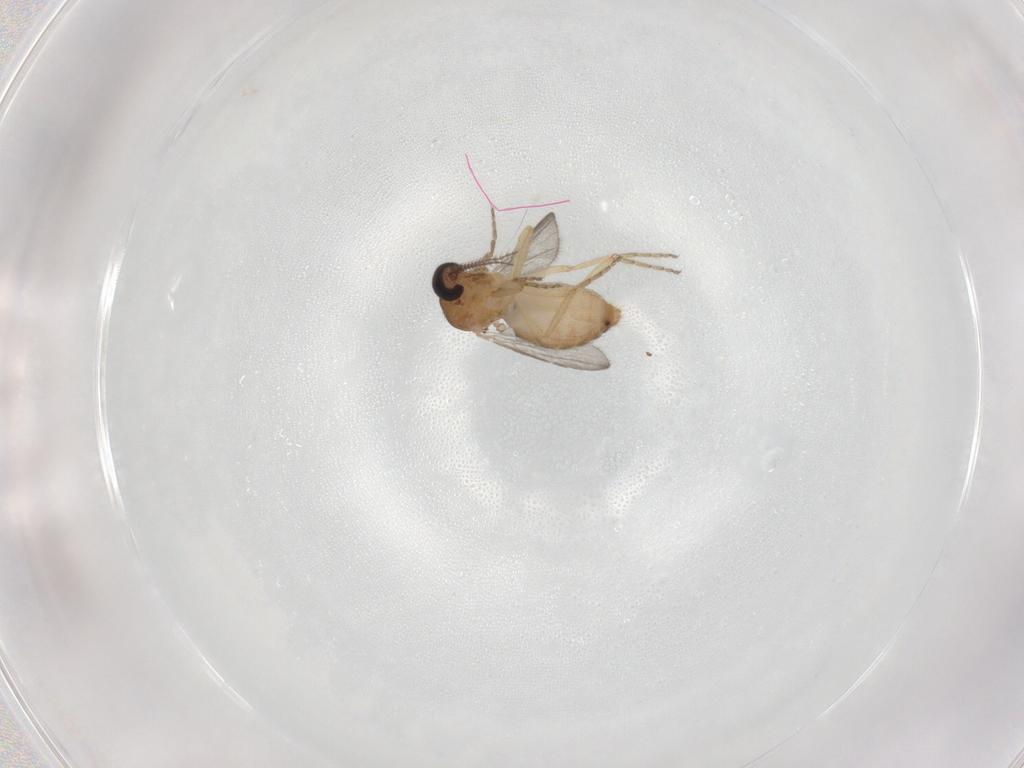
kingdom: Animalia
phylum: Arthropoda
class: Insecta
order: Diptera
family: Ceratopogonidae
